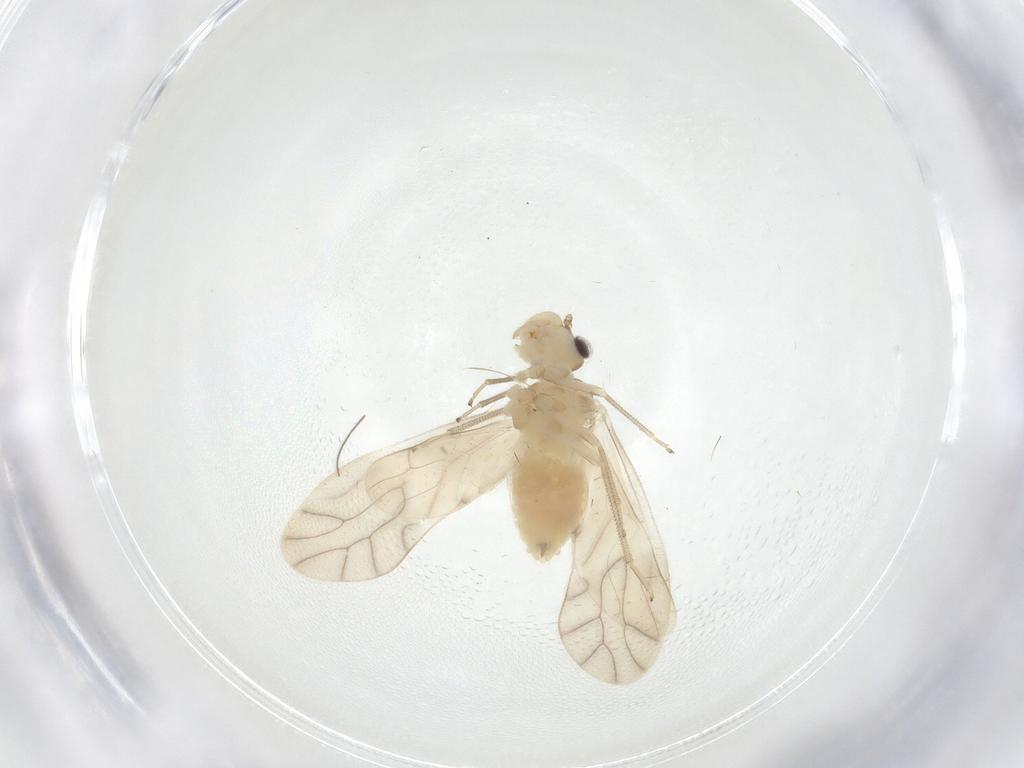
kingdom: Animalia
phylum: Arthropoda
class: Insecta
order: Psocodea
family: Caeciliusidae
